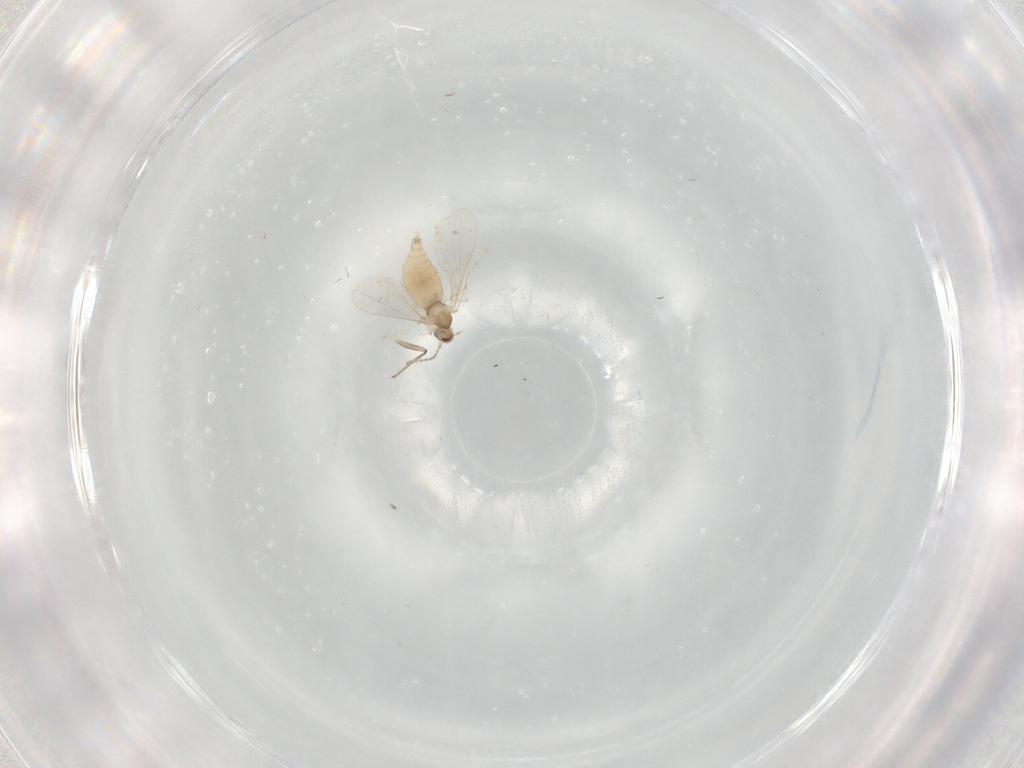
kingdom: Animalia
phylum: Arthropoda
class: Insecta
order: Diptera
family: Cecidomyiidae
